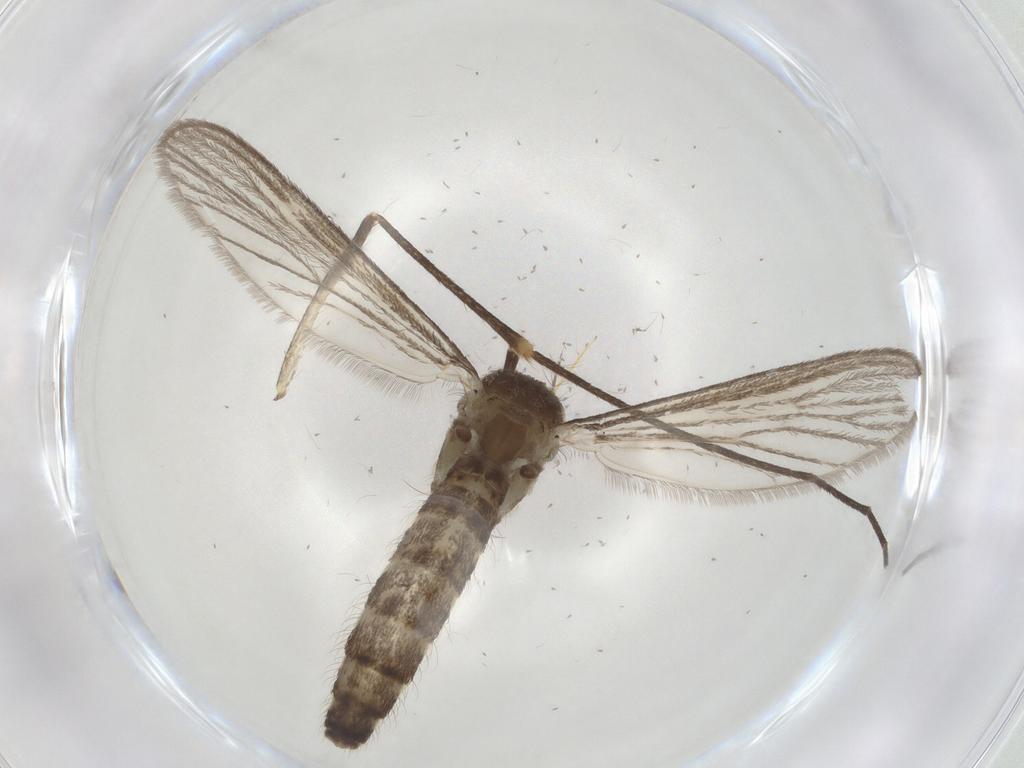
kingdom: Animalia
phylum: Arthropoda
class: Insecta
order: Diptera
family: Culicidae
